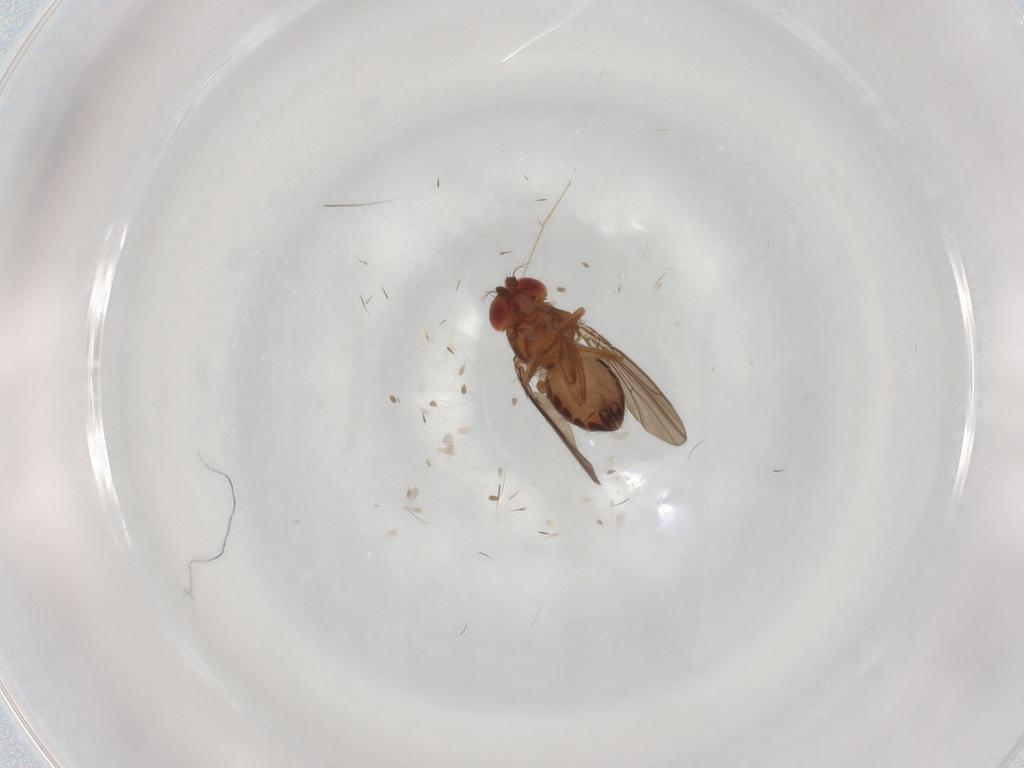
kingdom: Animalia
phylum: Arthropoda
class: Insecta
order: Diptera
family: Drosophilidae
